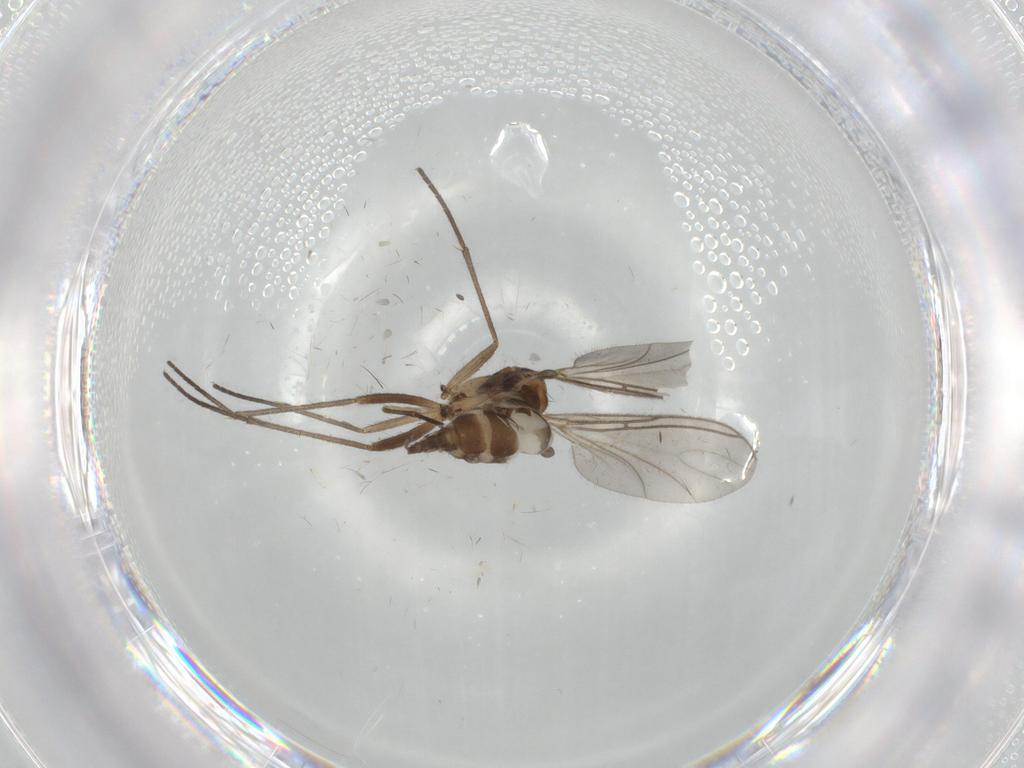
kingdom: Animalia
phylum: Arthropoda
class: Insecta
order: Diptera
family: Sciaridae
